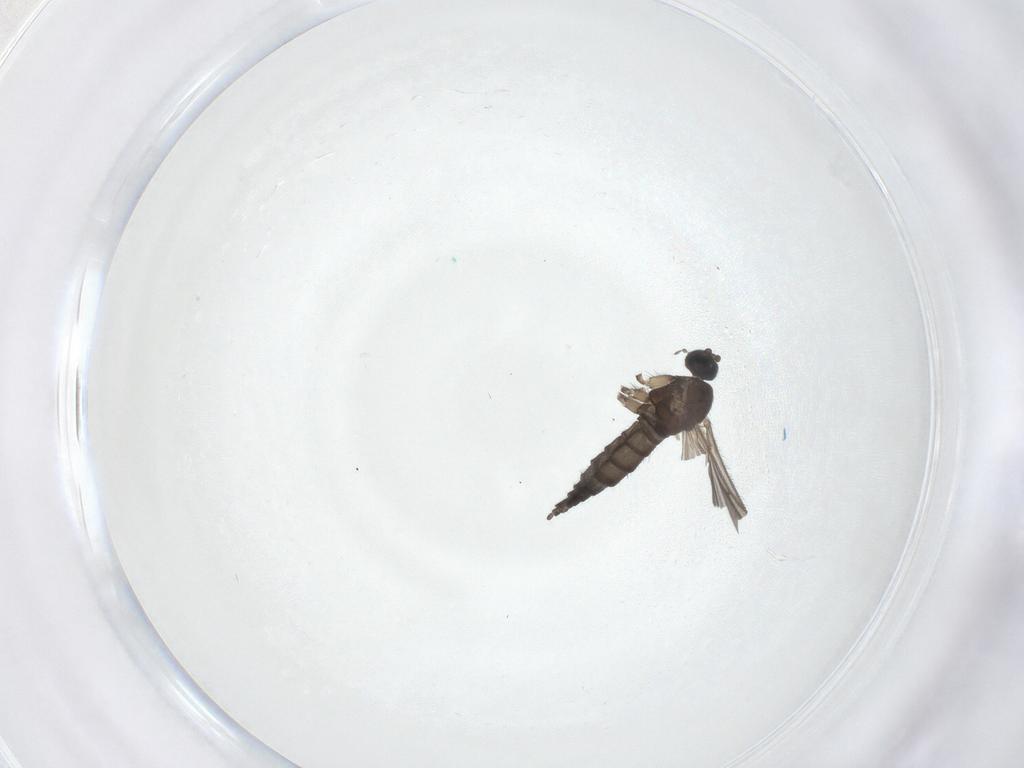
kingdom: Animalia
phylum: Arthropoda
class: Insecta
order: Diptera
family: Sciaridae
